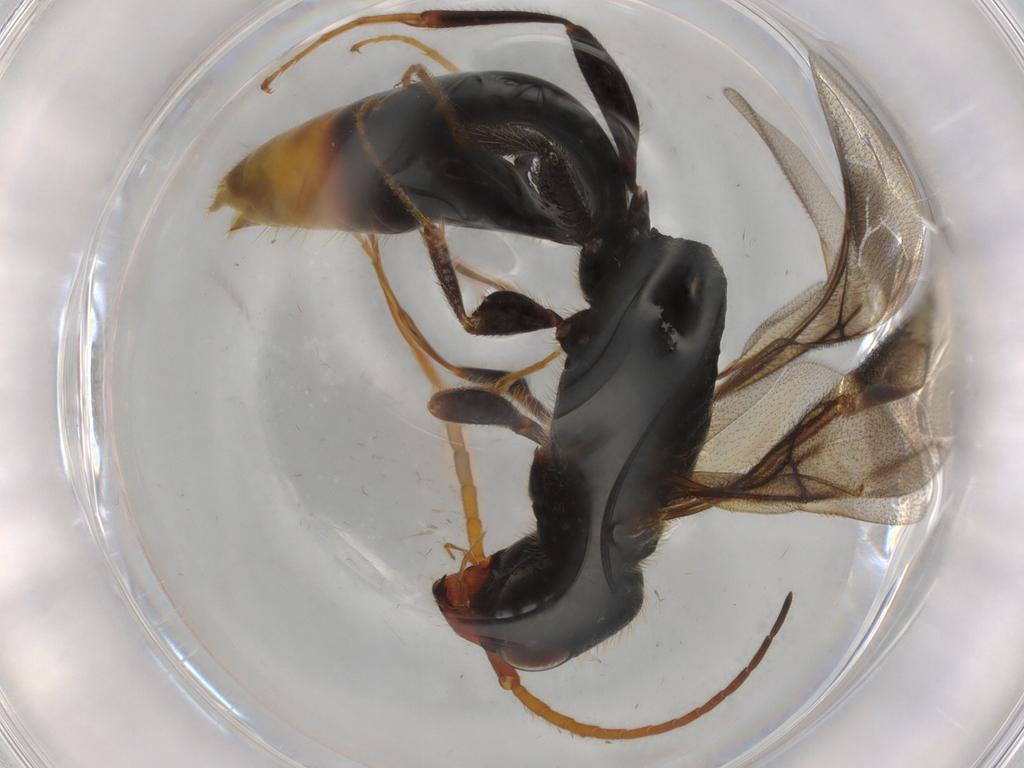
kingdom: Animalia
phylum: Arthropoda
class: Insecta
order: Hymenoptera
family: Bethylidae
